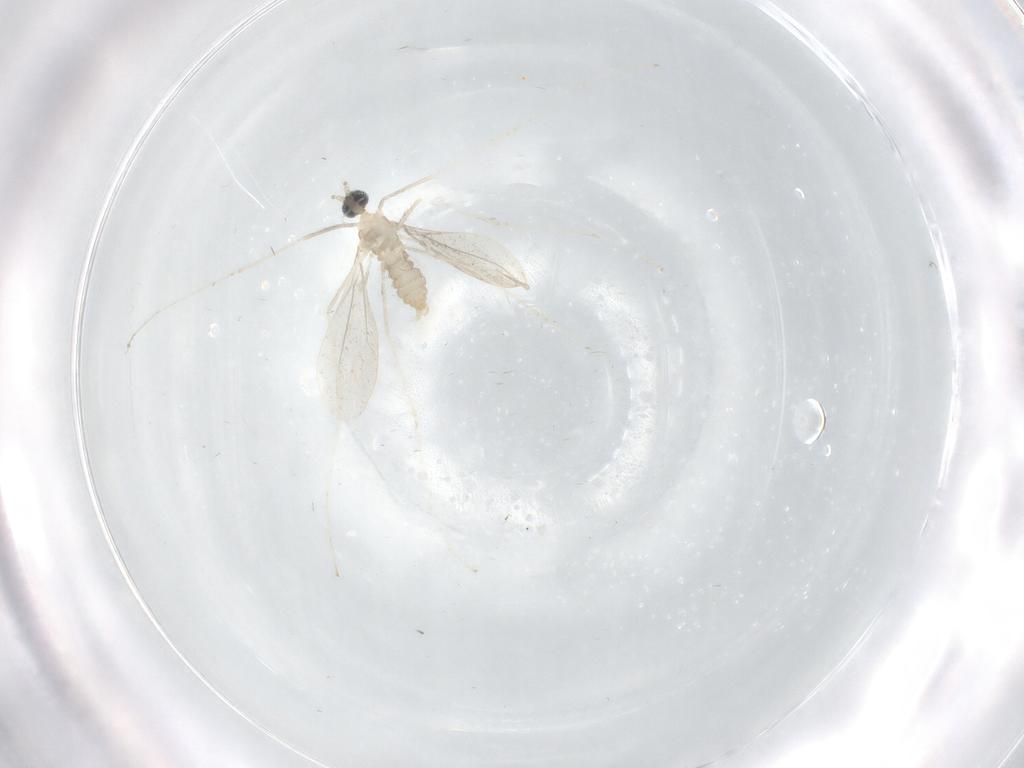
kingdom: Animalia
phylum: Arthropoda
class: Insecta
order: Diptera
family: Cecidomyiidae
